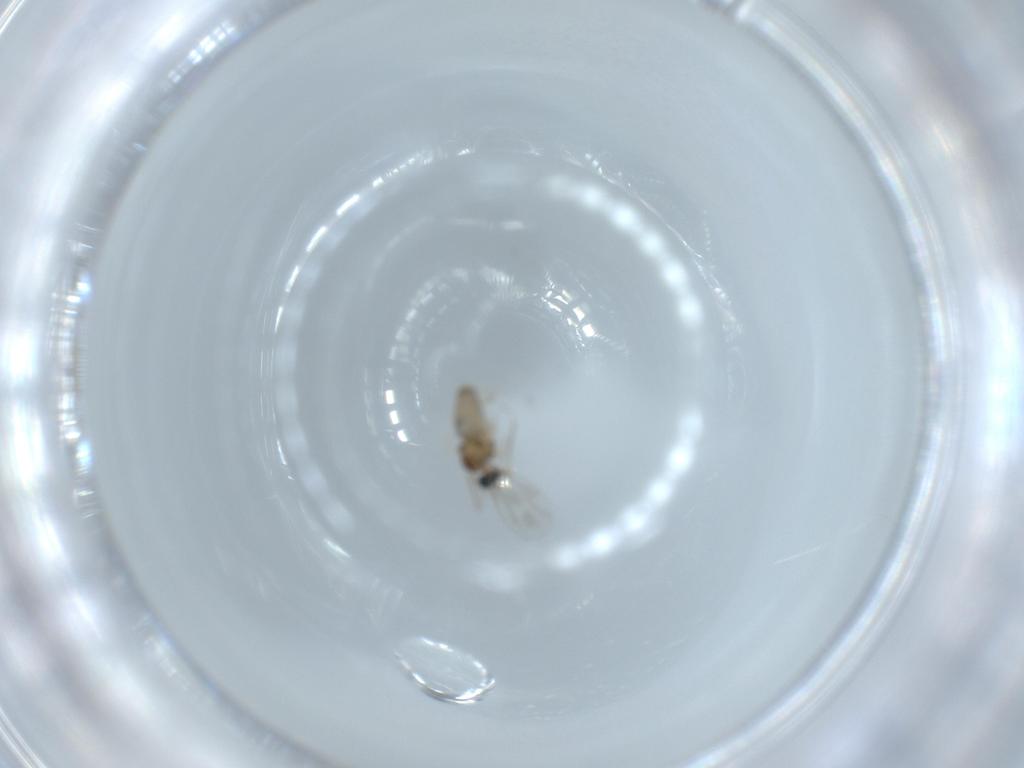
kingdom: Animalia
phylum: Arthropoda
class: Insecta
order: Diptera
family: Cecidomyiidae
